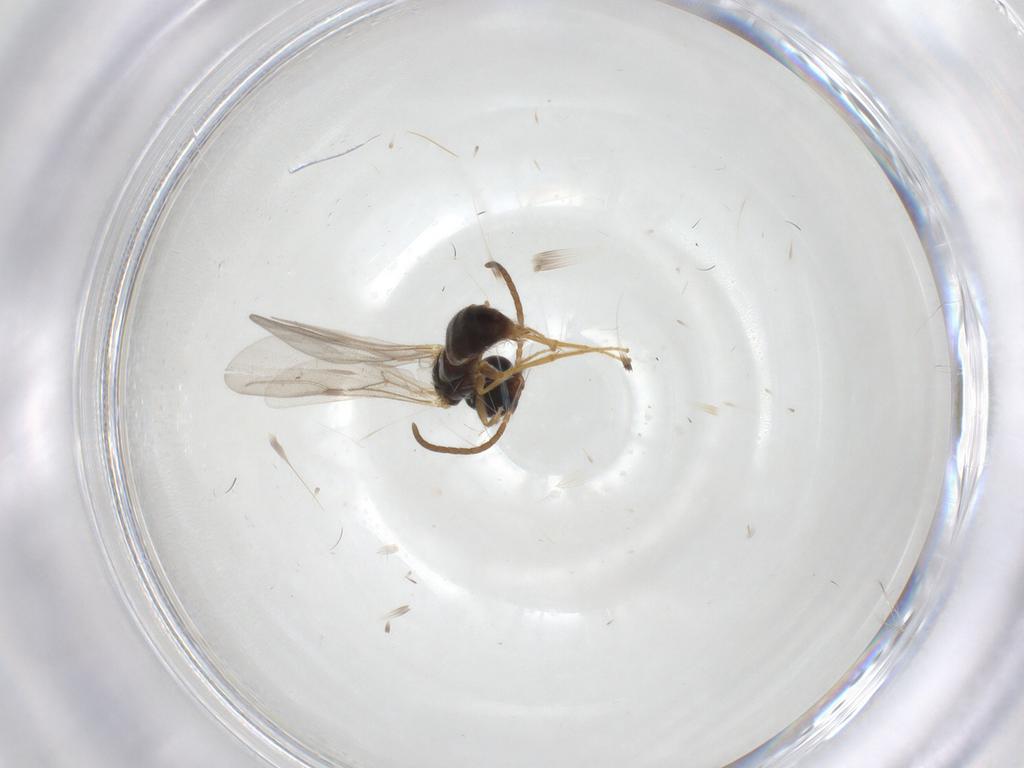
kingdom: Animalia
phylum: Arthropoda
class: Insecta
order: Hymenoptera
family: Bethylidae
